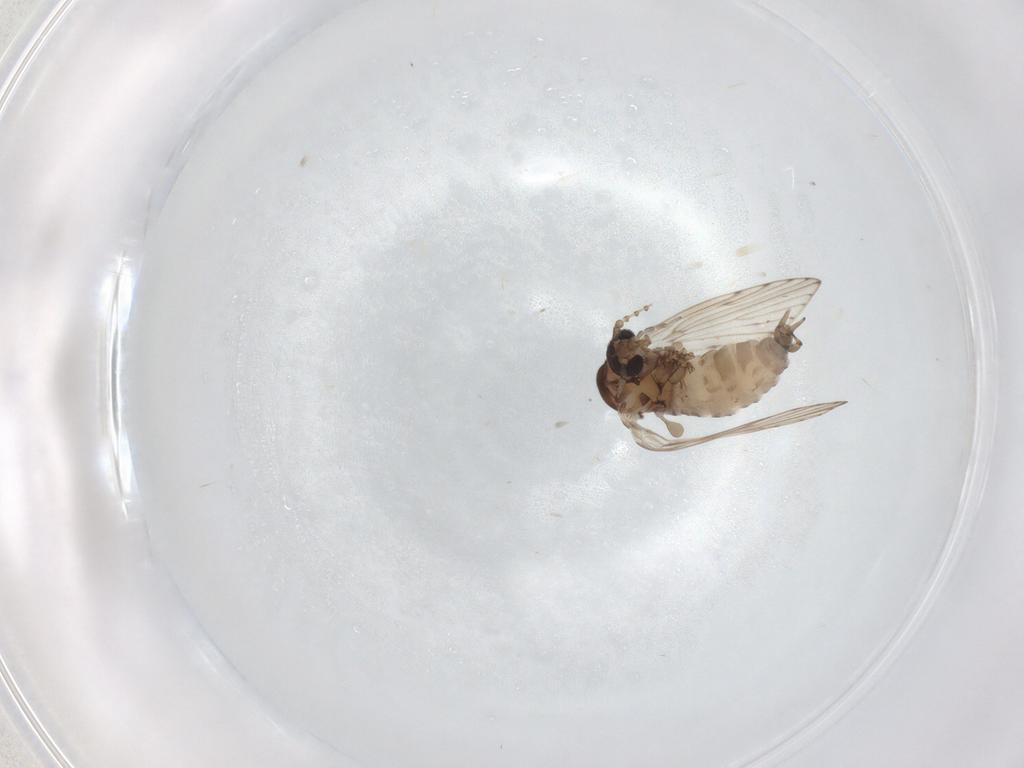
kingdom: Animalia
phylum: Arthropoda
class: Insecta
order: Diptera
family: Psychodidae
